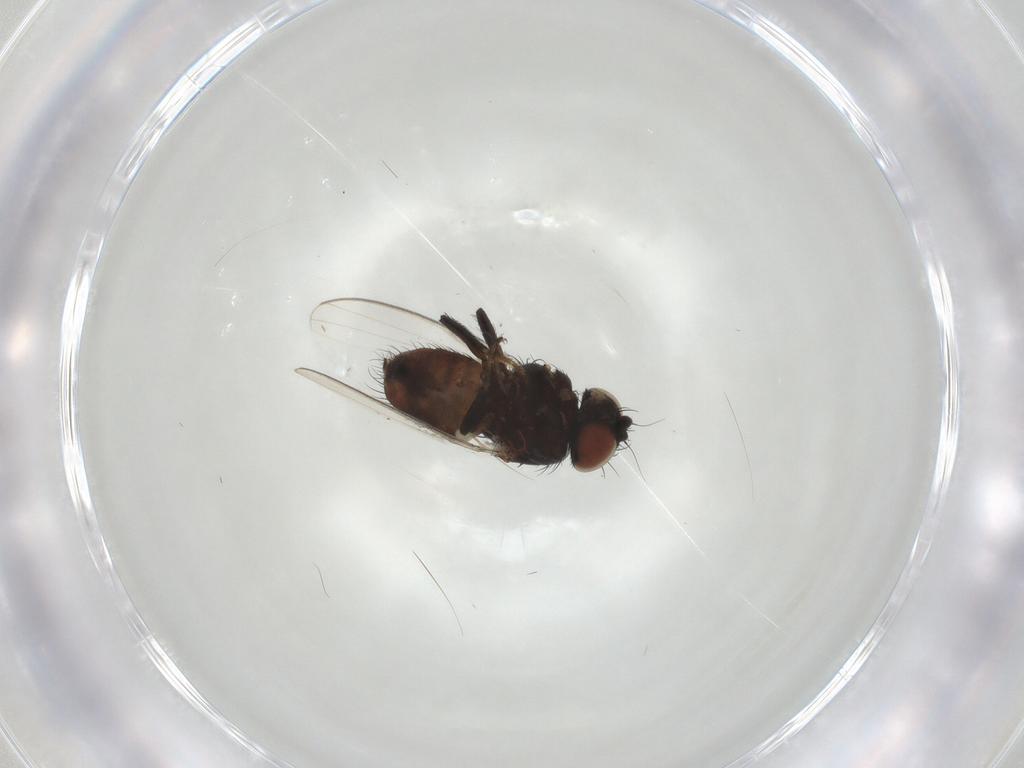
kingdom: Animalia
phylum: Arthropoda
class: Insecta
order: Diptera
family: Milichiidae
